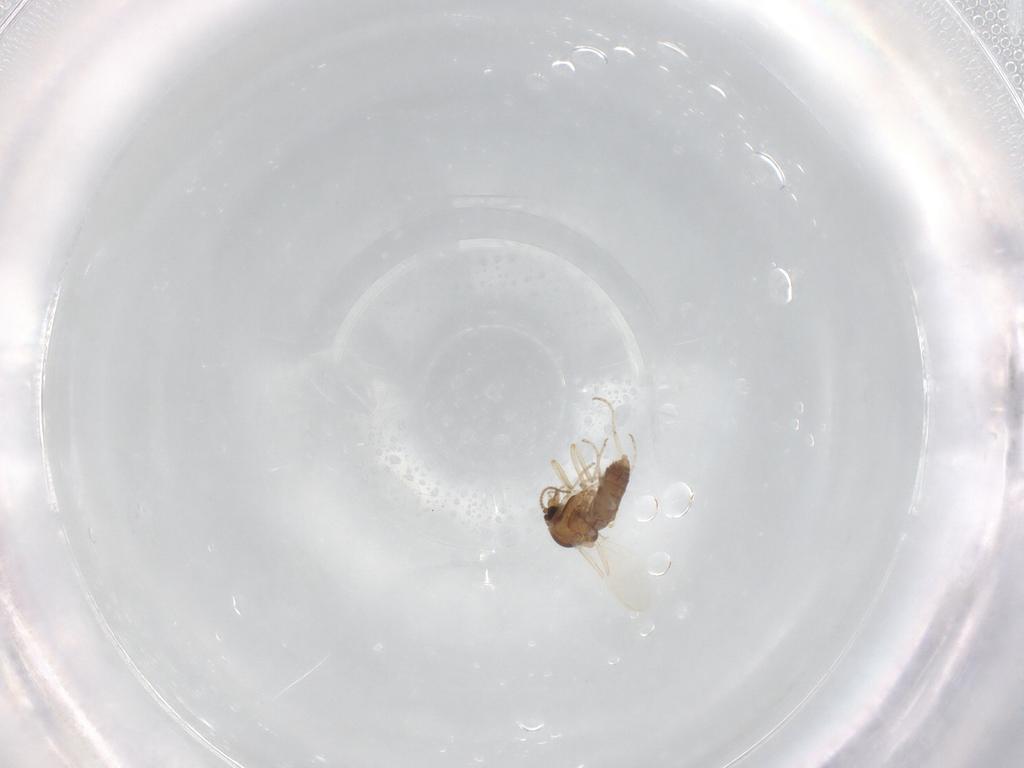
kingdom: Animalia
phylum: Arthropoda
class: Insecta
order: Diptera
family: Ceratopogonidae
